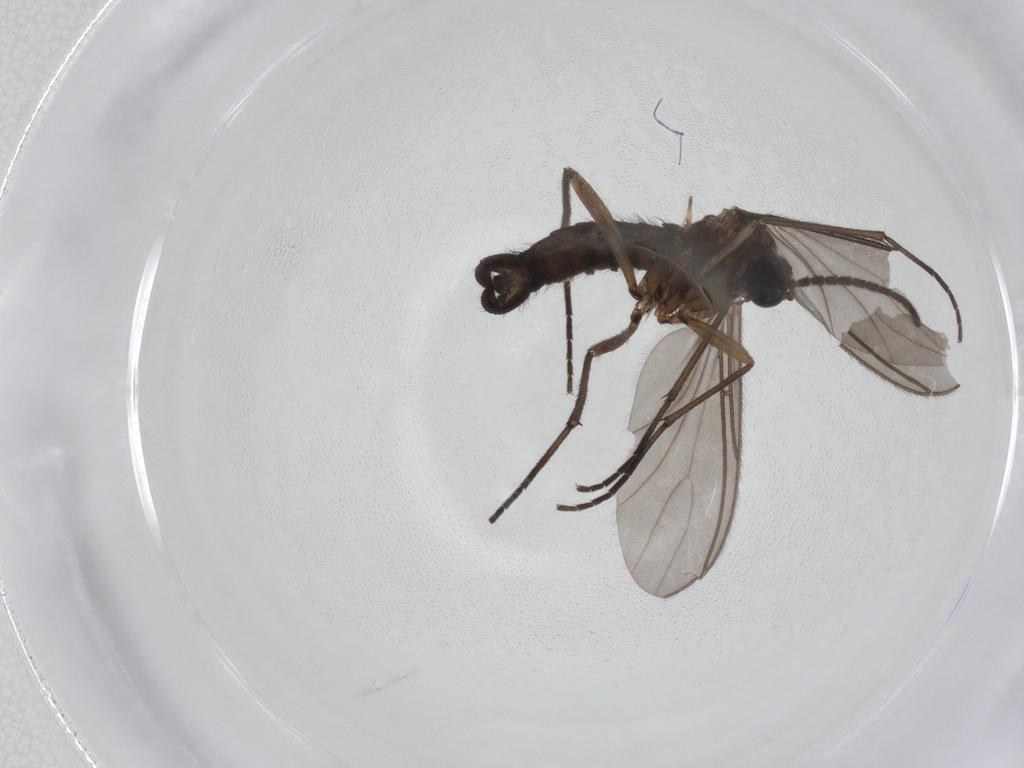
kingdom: Animalia
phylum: Arthropoda
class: Insecta
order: Diptera
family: Sciaridae
